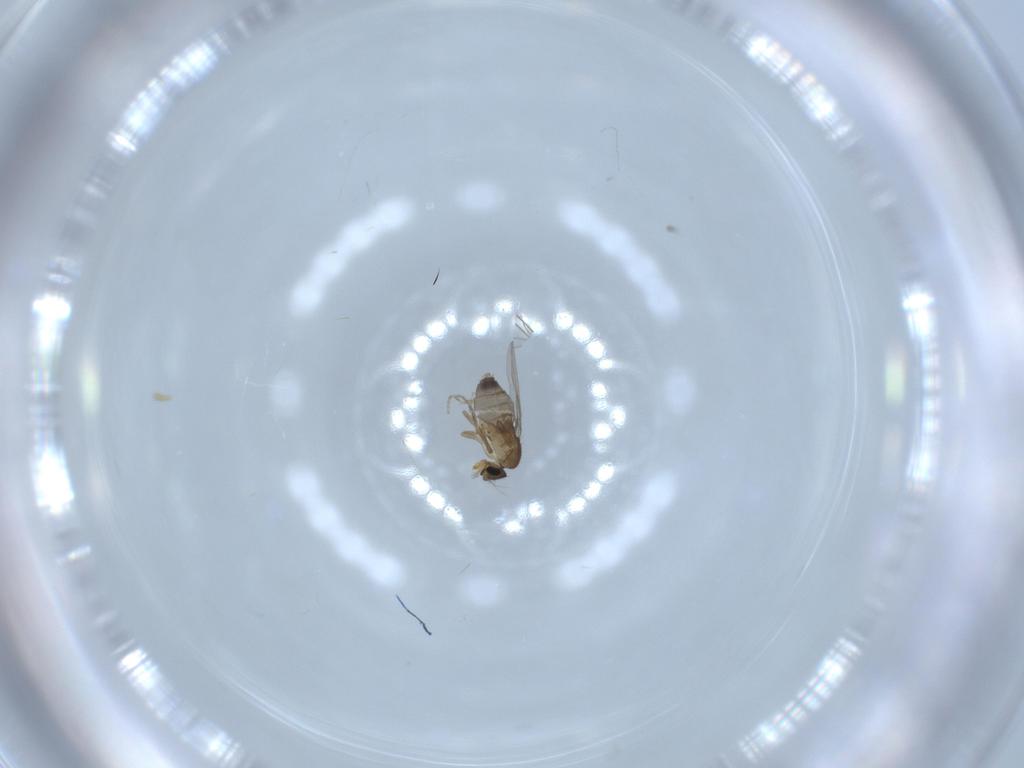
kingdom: Animalia
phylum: Arthropoda
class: Insecta
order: Diptera
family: Phoridae
